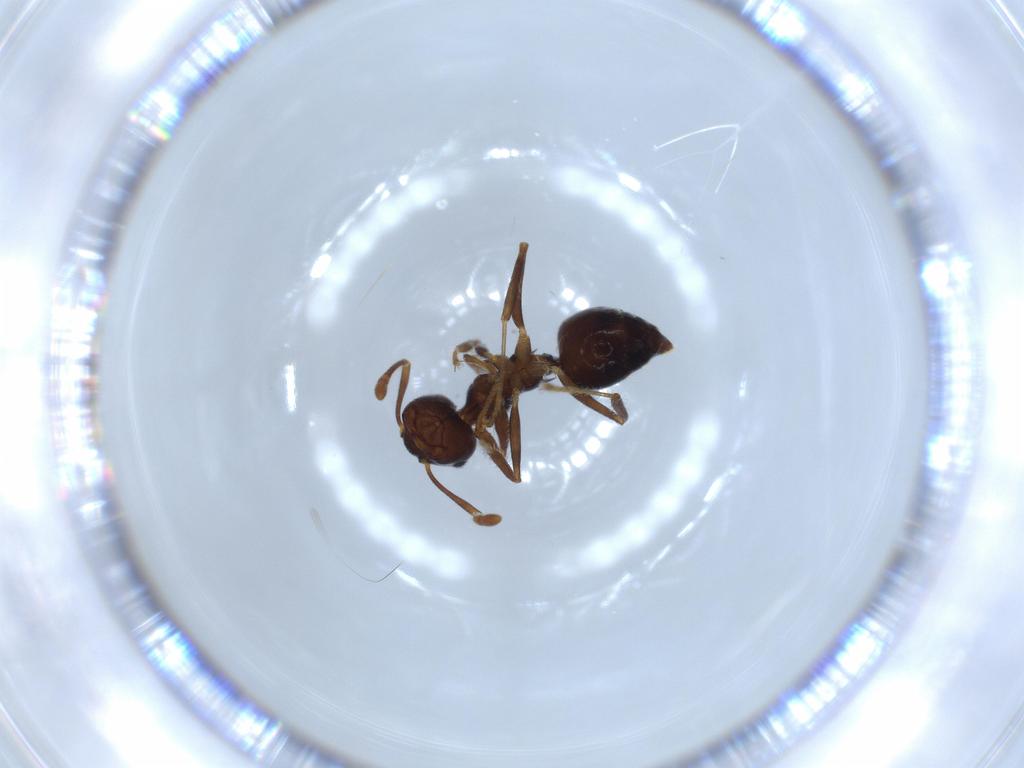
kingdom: Animalia
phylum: Arthropoda
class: Insecta
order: Hymenoptera
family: Formicidae
